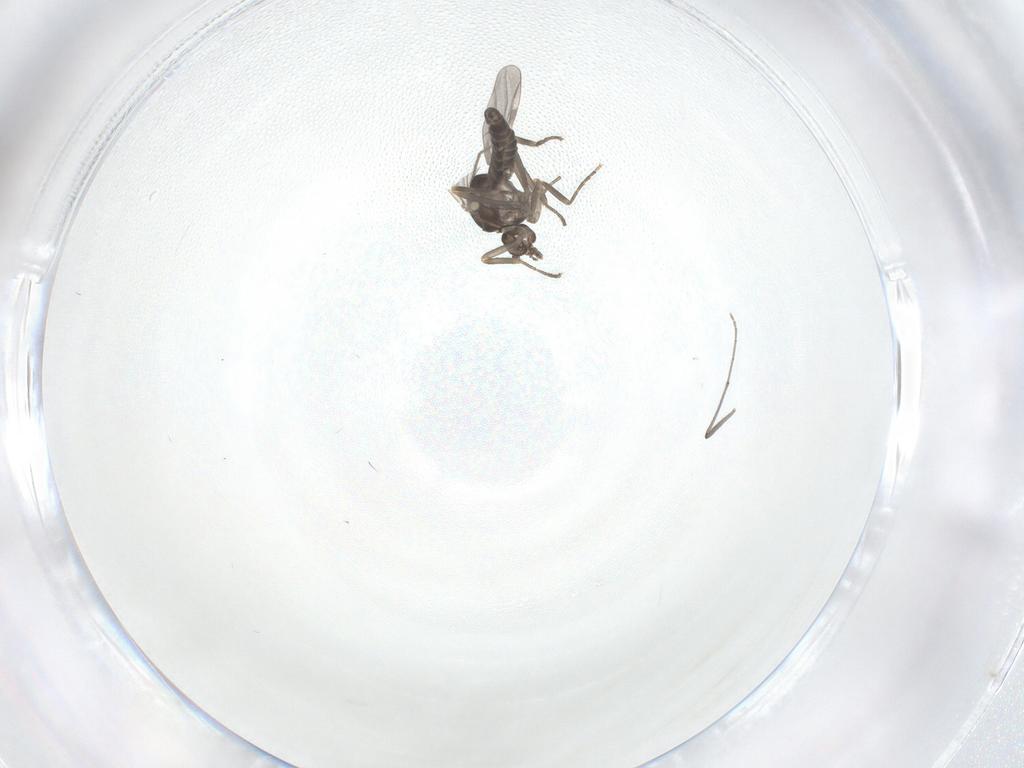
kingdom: Animalia
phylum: Arthropoda
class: Insecta
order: Diptera
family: Ceratopogonidae
